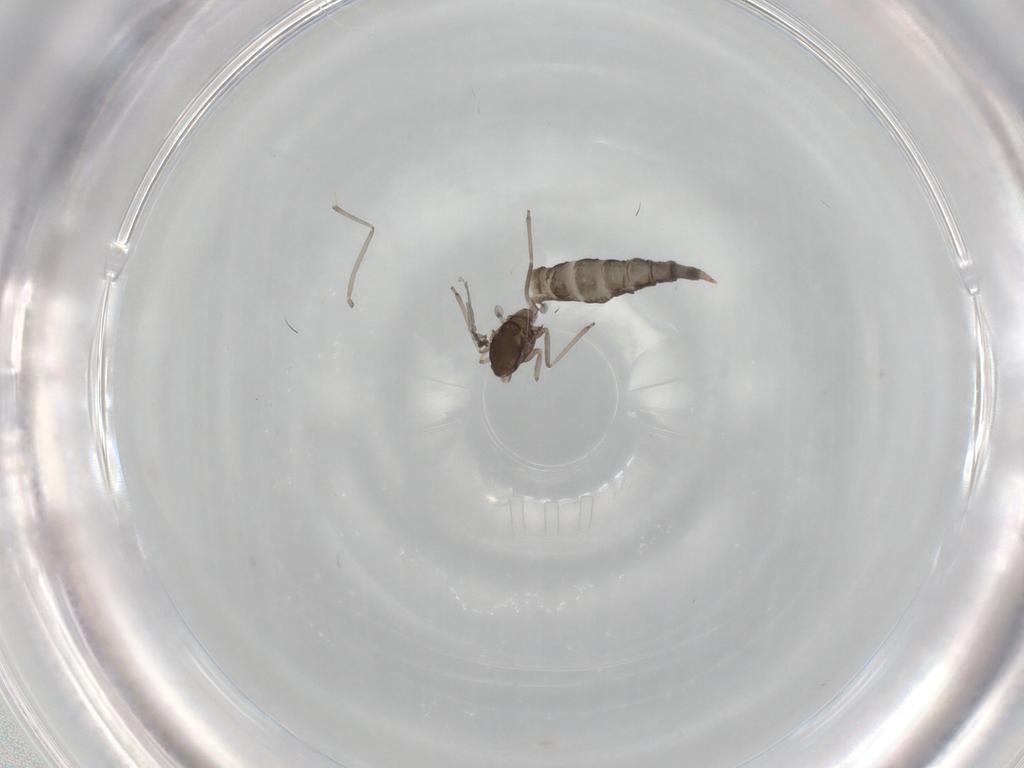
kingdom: Animalia
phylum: Arthropoda
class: Insecta
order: Diptera
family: Cecidomyiidae
